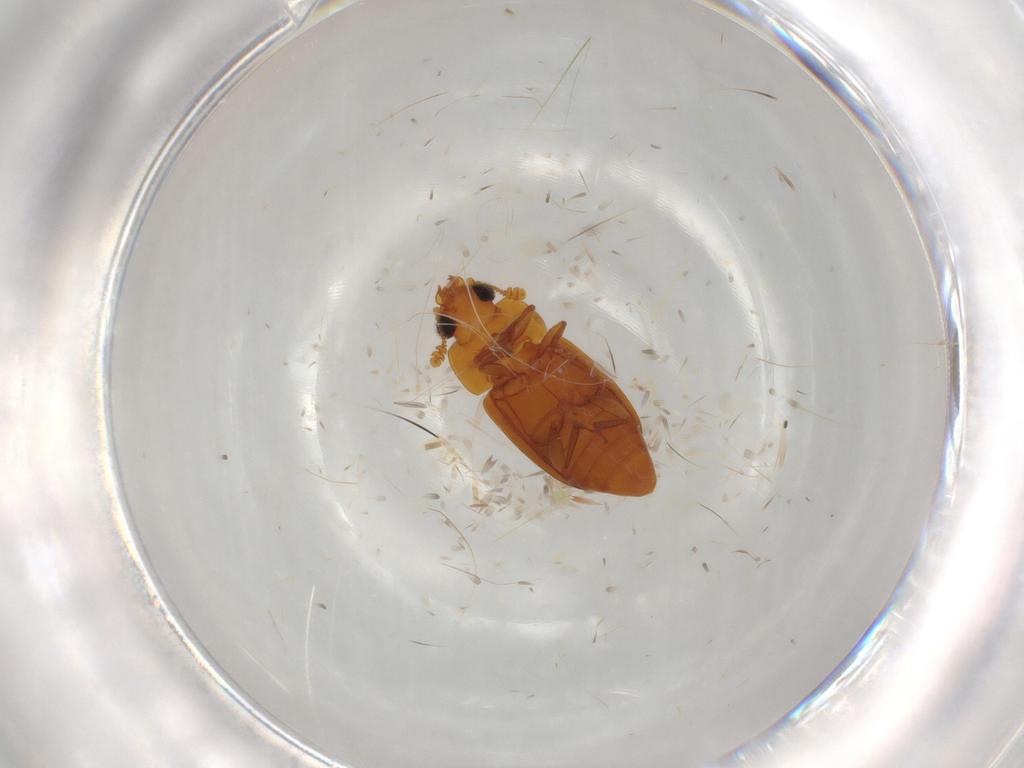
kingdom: Animalia
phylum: Arthropoda
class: Insecta
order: Coleoptera
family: Nitidulidae
